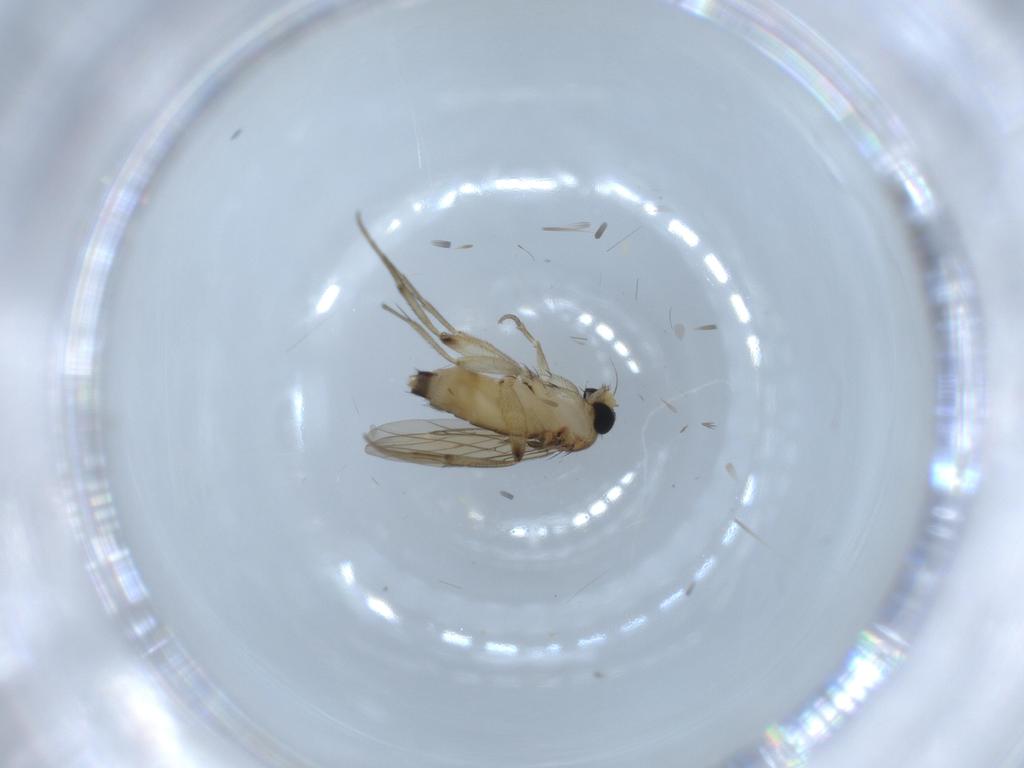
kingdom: Animalia
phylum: Arthropoda
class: Insecta
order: Diptera
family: Phoridae
